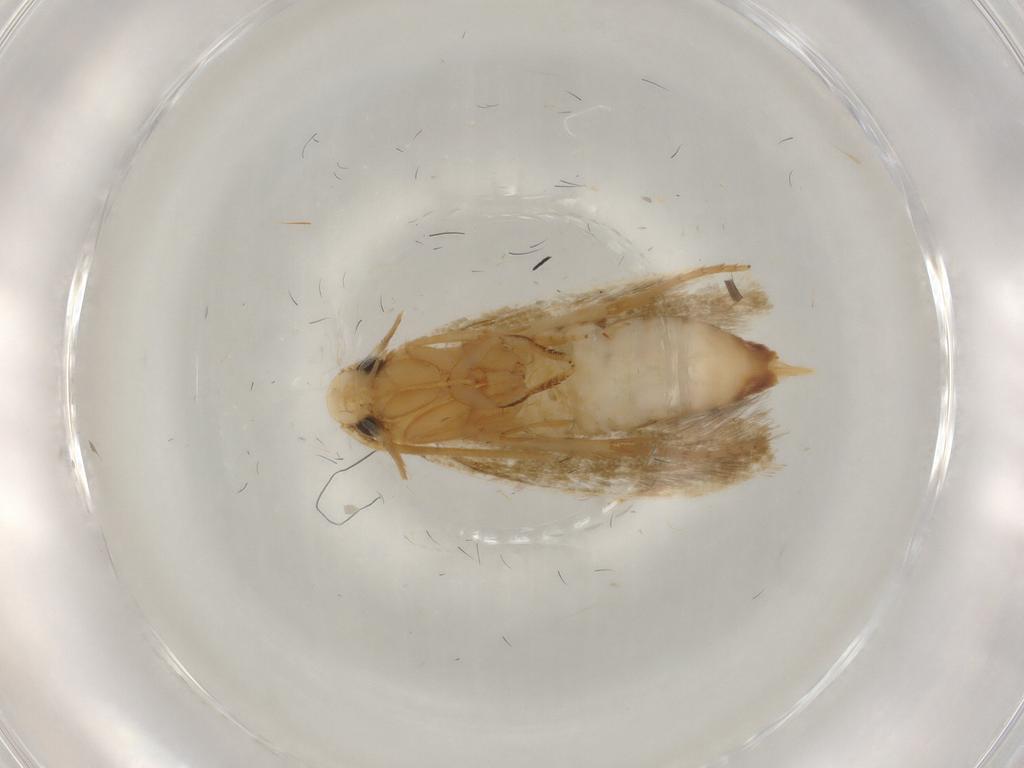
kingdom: Animalia
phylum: Arthropoda
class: Insecta
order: Lepidoptera
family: Tineidae
